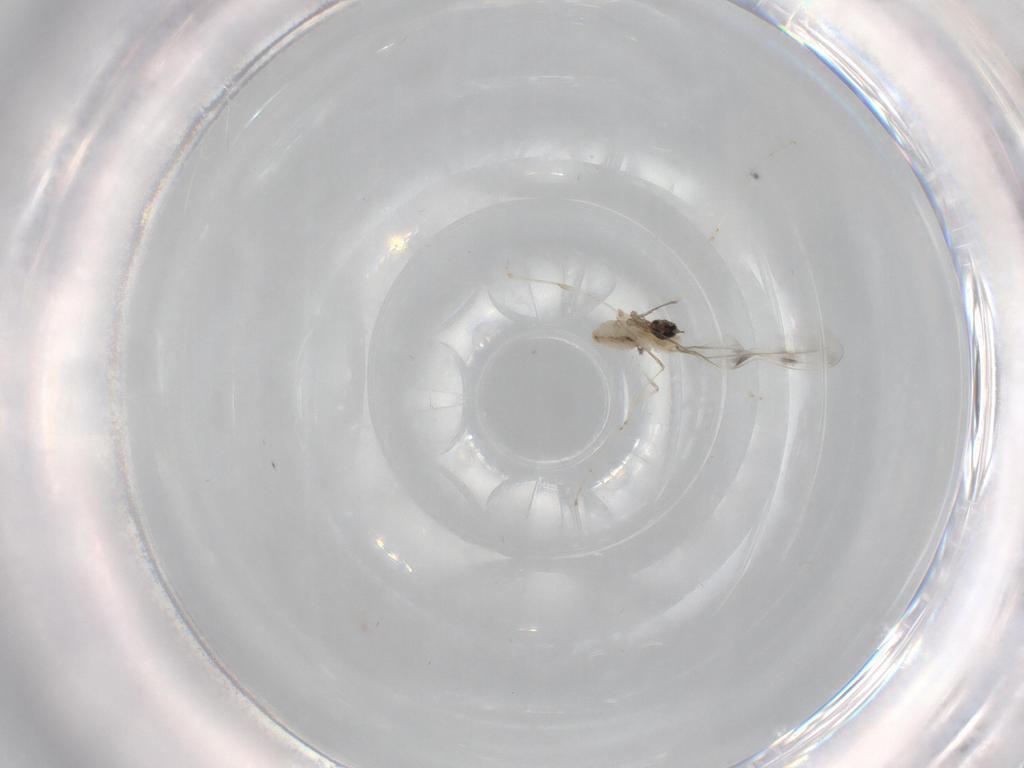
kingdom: Animalia
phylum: Arthropoda
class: Insecta
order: Diptera
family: Cecidomyiidae
